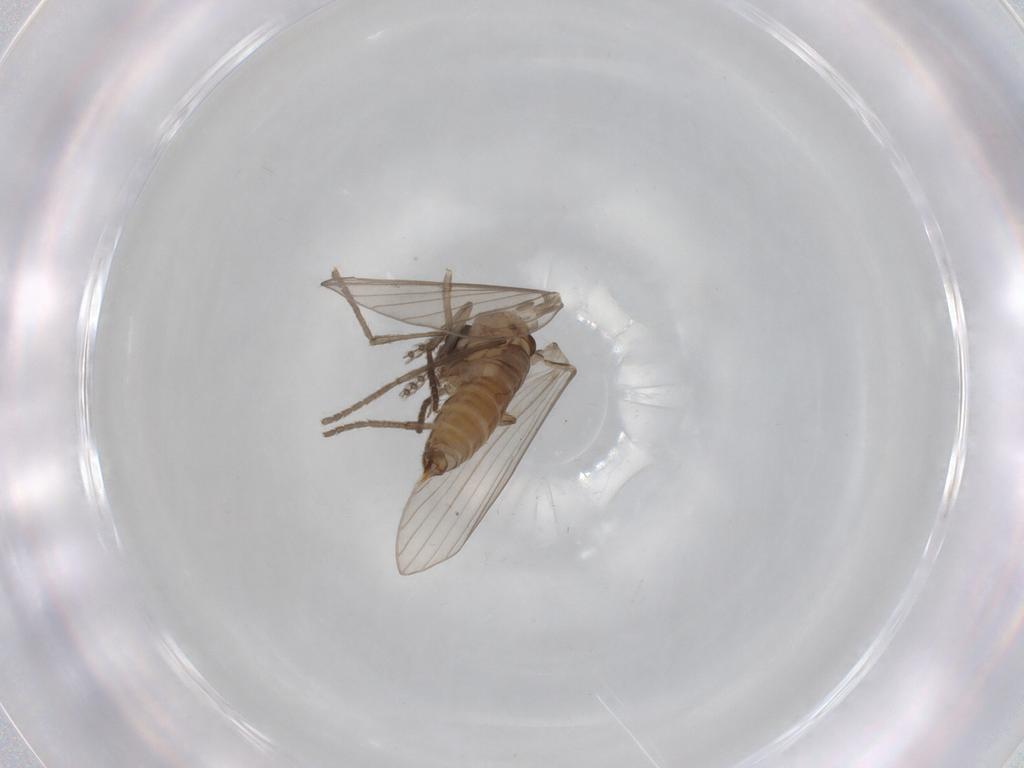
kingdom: Animalia
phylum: Arthropoda
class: Insecta
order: Diptera
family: Psychodidae
